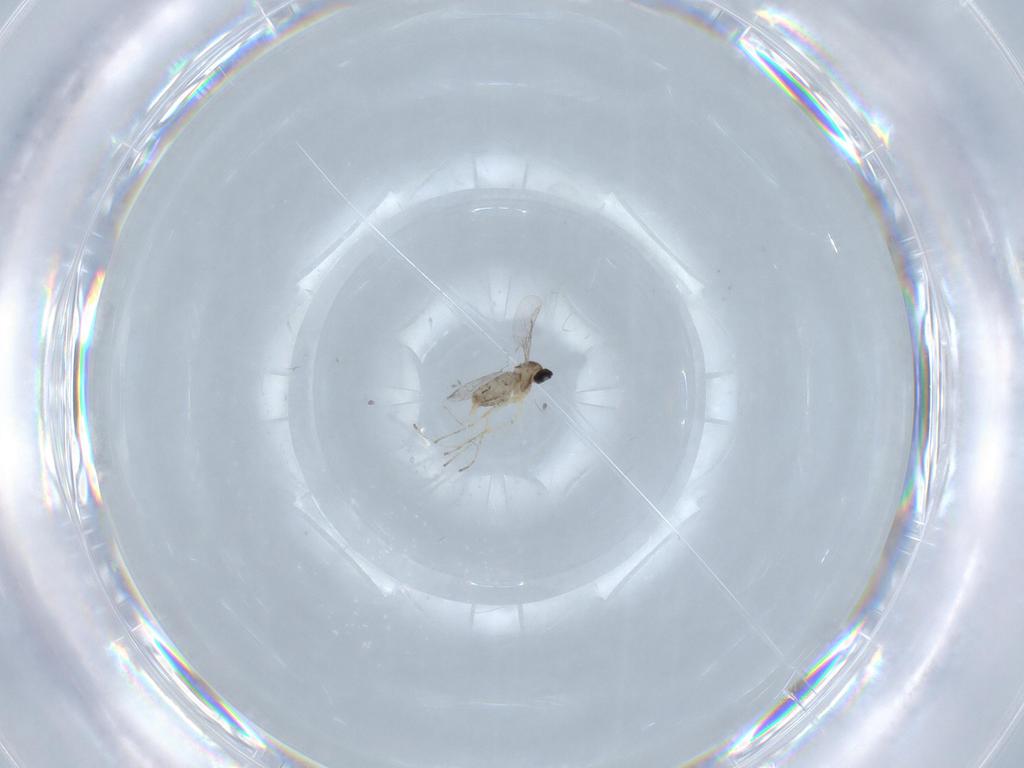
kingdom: Animalia
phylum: Arthropoda
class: Insecta
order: Diptera
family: Cecidomyiidae
